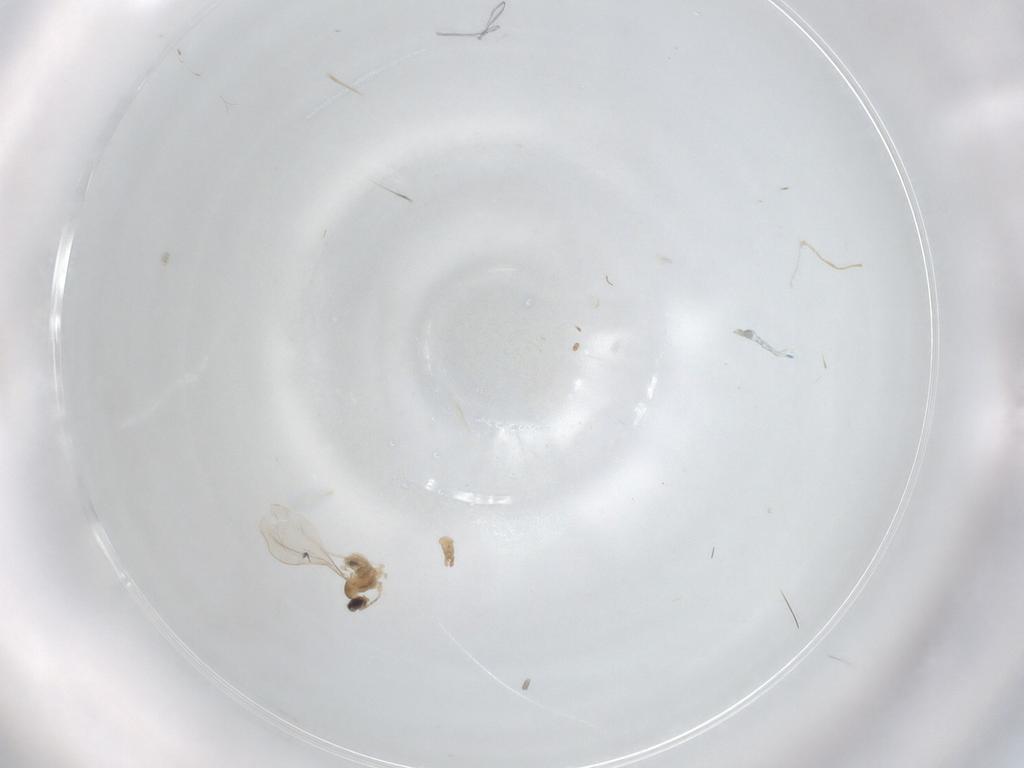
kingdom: Animalia
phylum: Arthropoda
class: Insecta
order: Diptera
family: Cecidomyiidae
